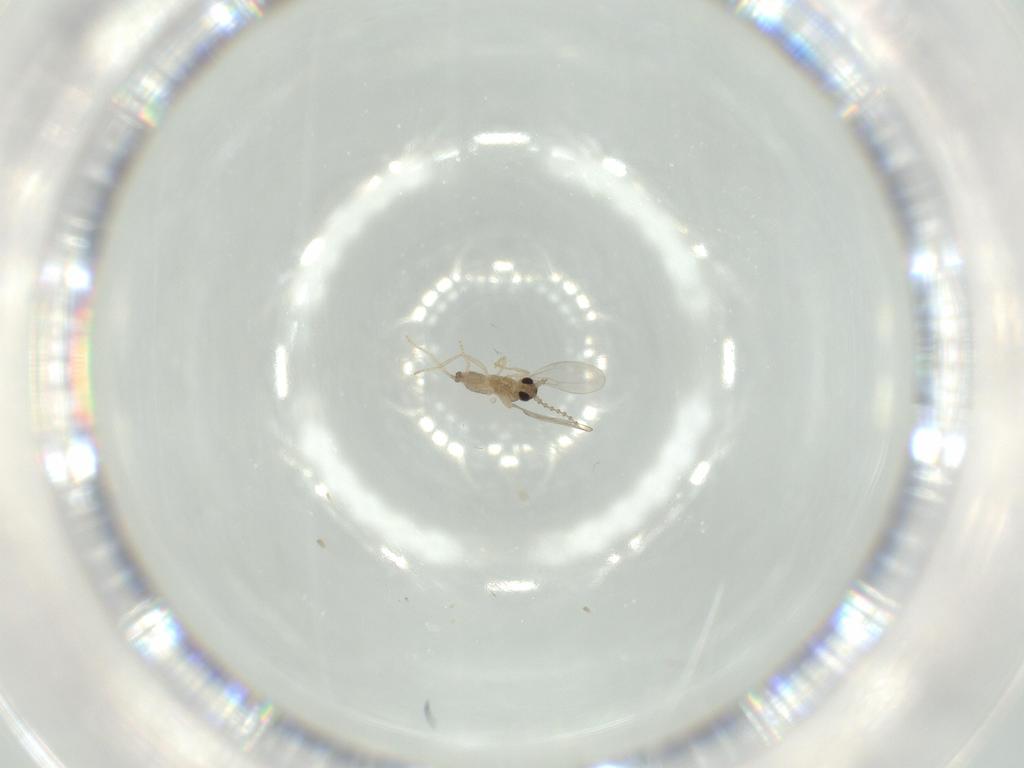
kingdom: Animalia
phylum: Arthropoda
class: Insecta
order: Diptera
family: Cecidomyiidae
